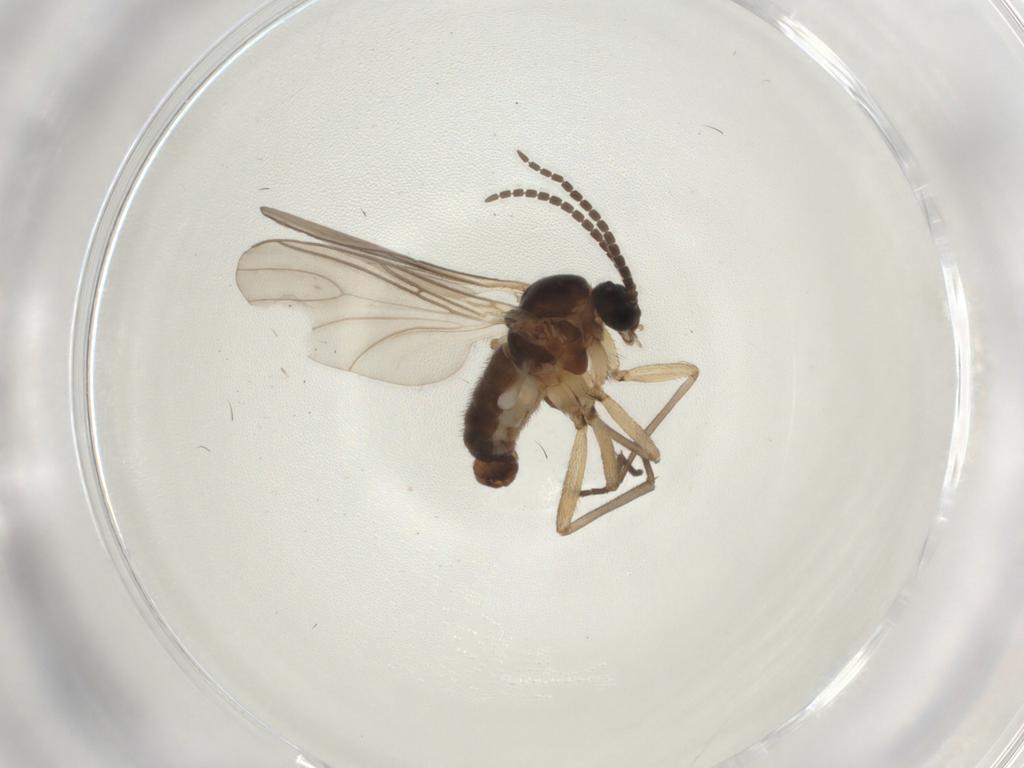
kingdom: Animalia
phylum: Arthropoda
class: Insecta
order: Diptera
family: Sciaridae
